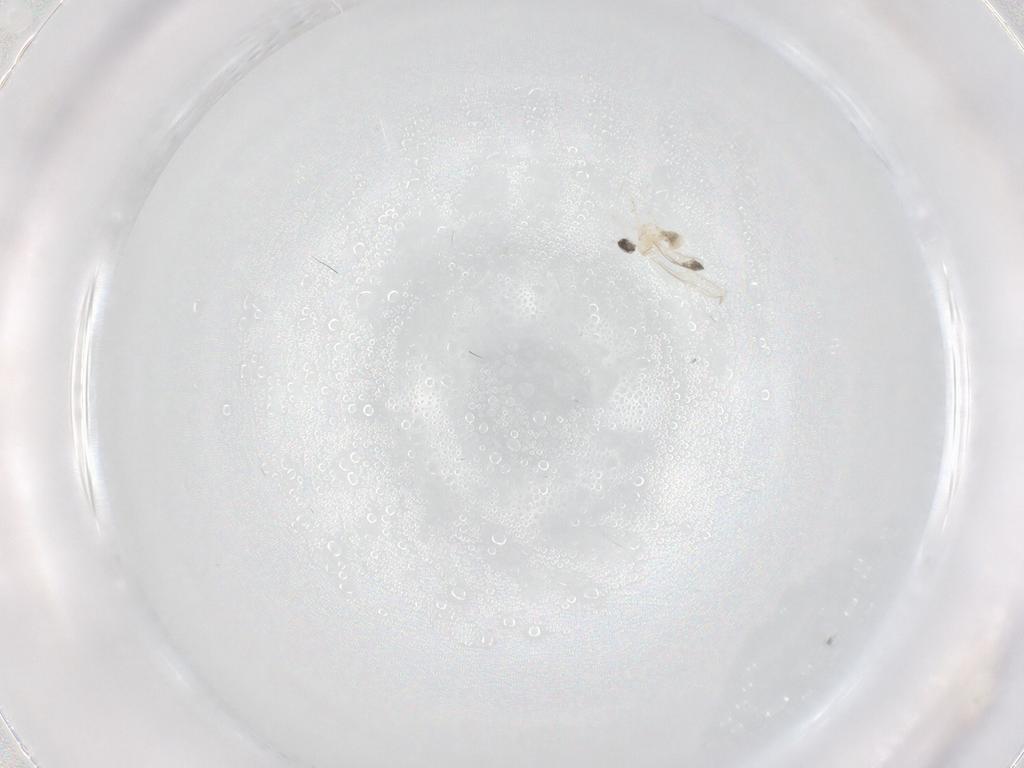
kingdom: Animalia
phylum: Arthropoda
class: Insecta
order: Diptera
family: Cecidomyiidae
